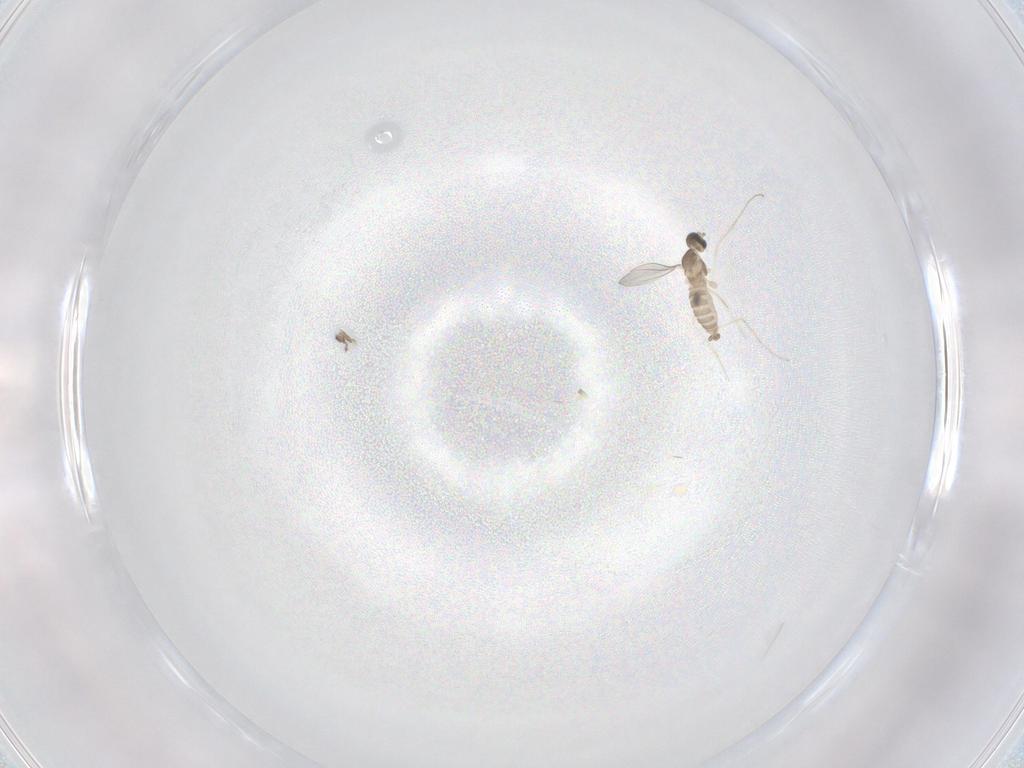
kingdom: Animalia
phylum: Arthropoda
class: Insecta
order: Diptera
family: Cecidomyiidae
